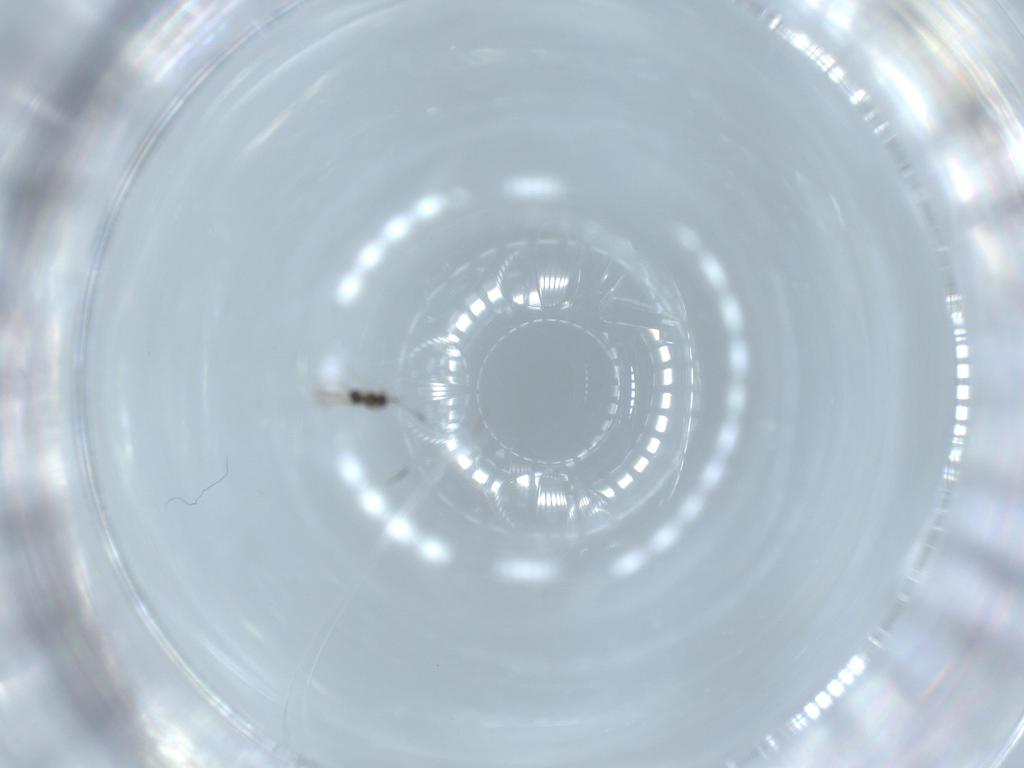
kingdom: Animalia
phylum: Arthropoda
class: Insecta
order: Hymenoptera
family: Mymaridae
